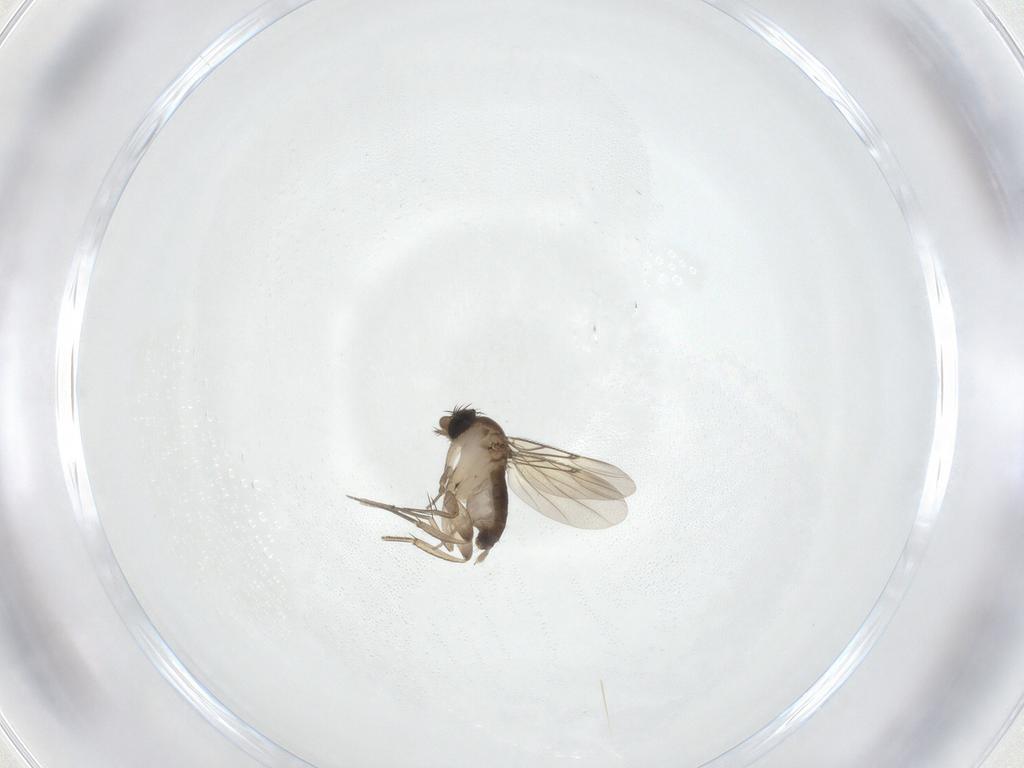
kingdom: Animalia
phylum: Arthropoda
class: Insecta
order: Diptera
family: Phoridae
